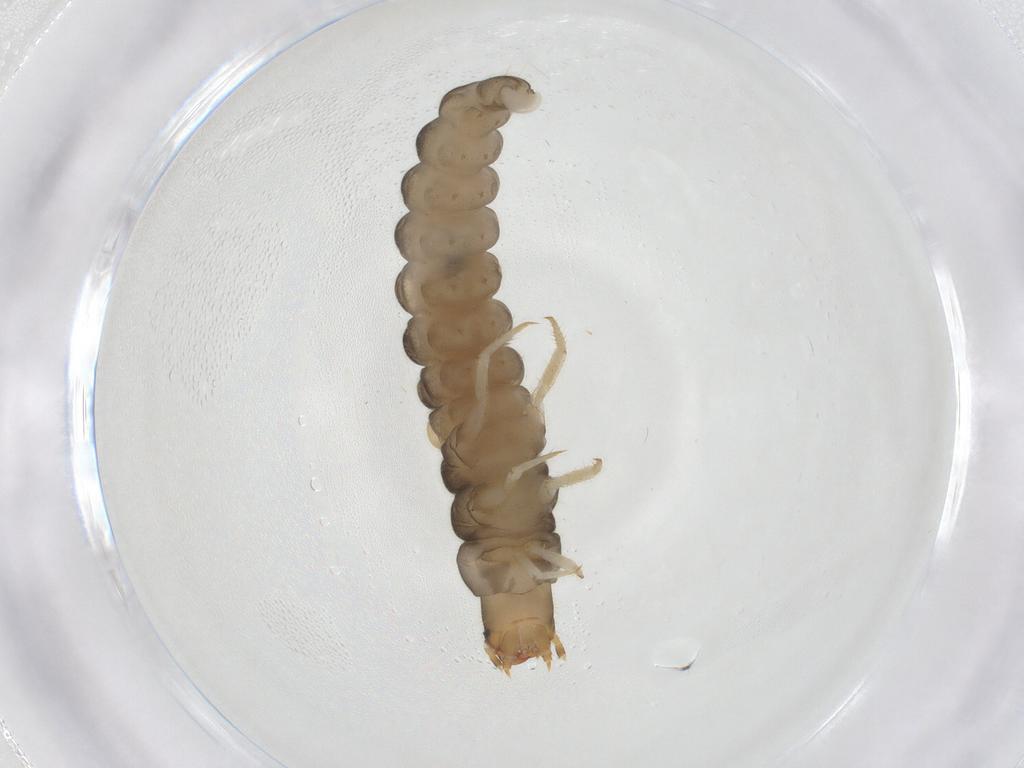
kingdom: Animalia
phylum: Arthropoda
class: Insecta
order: Coleoptera
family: Cantharidae
